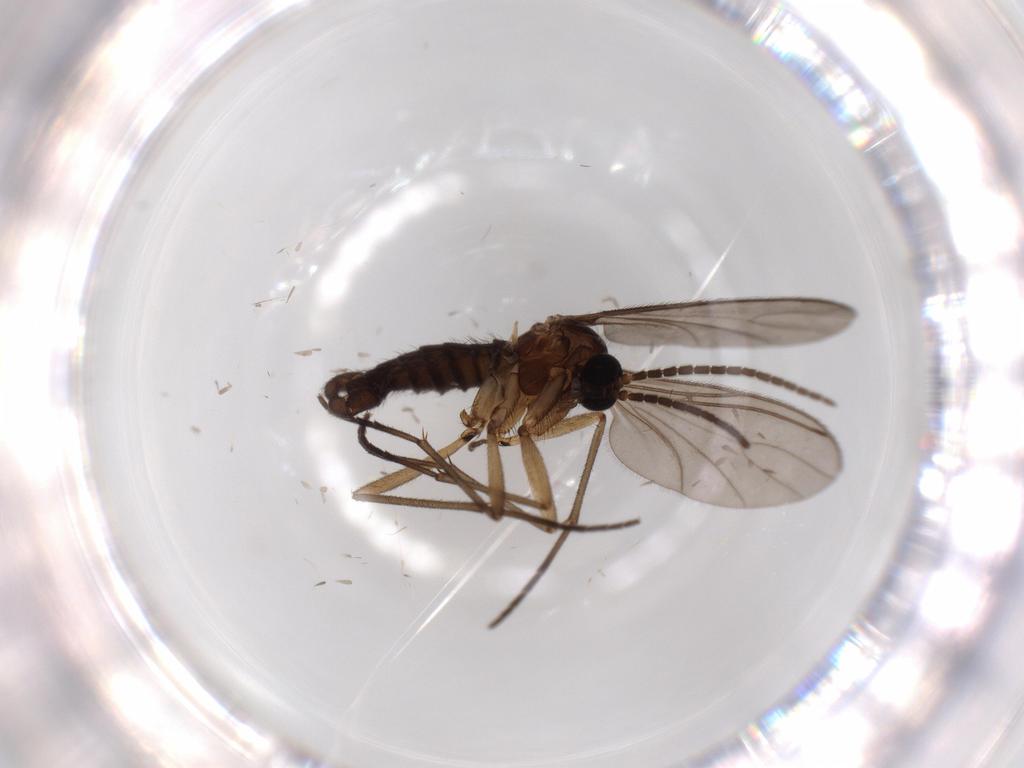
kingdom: Animalia
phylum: Arthropoda
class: Insecta
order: Diptera
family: Sciaridae
